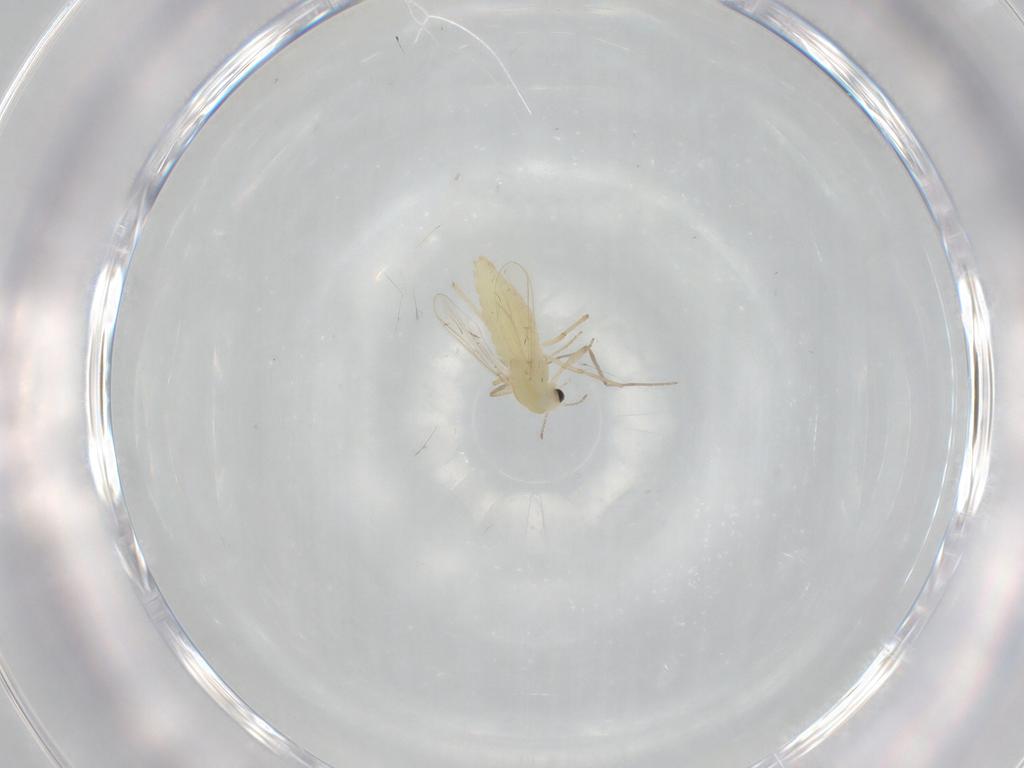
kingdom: Animalia
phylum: Arthropoda
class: Insecta
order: Diptera
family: Chironomidae
